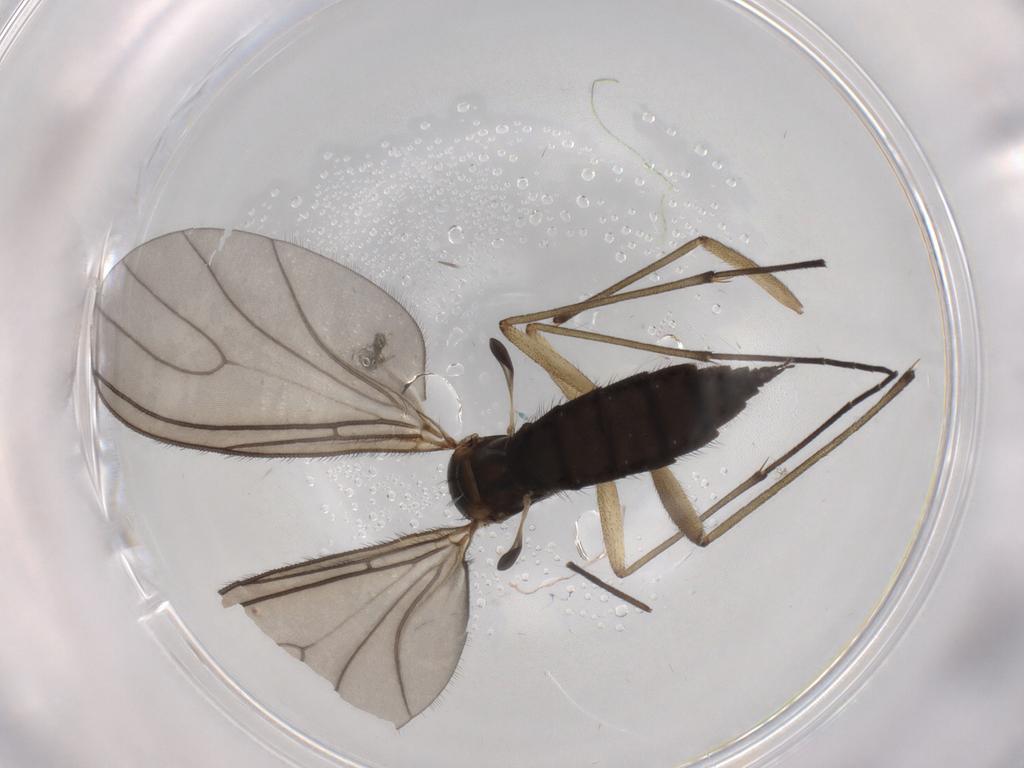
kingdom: Animalia
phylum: Arthropoda
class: Insecta
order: Diptera
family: Sciaridae
